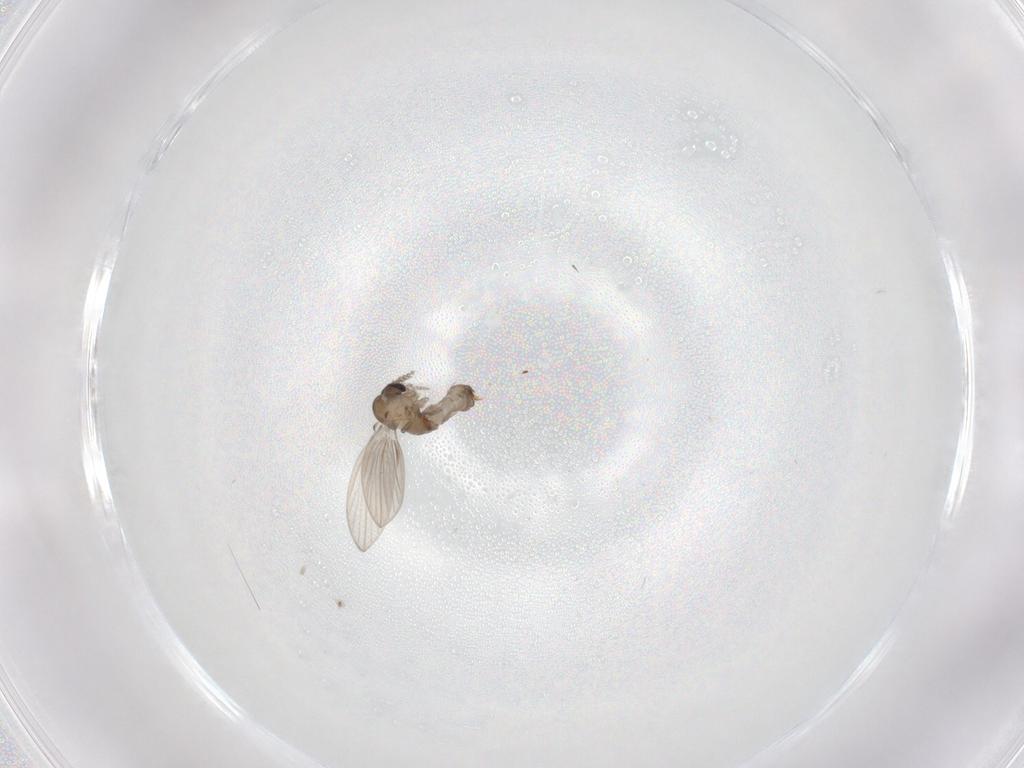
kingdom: Animalia
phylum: Arthropoda
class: Insecta
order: Diptera
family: Psychodidae
